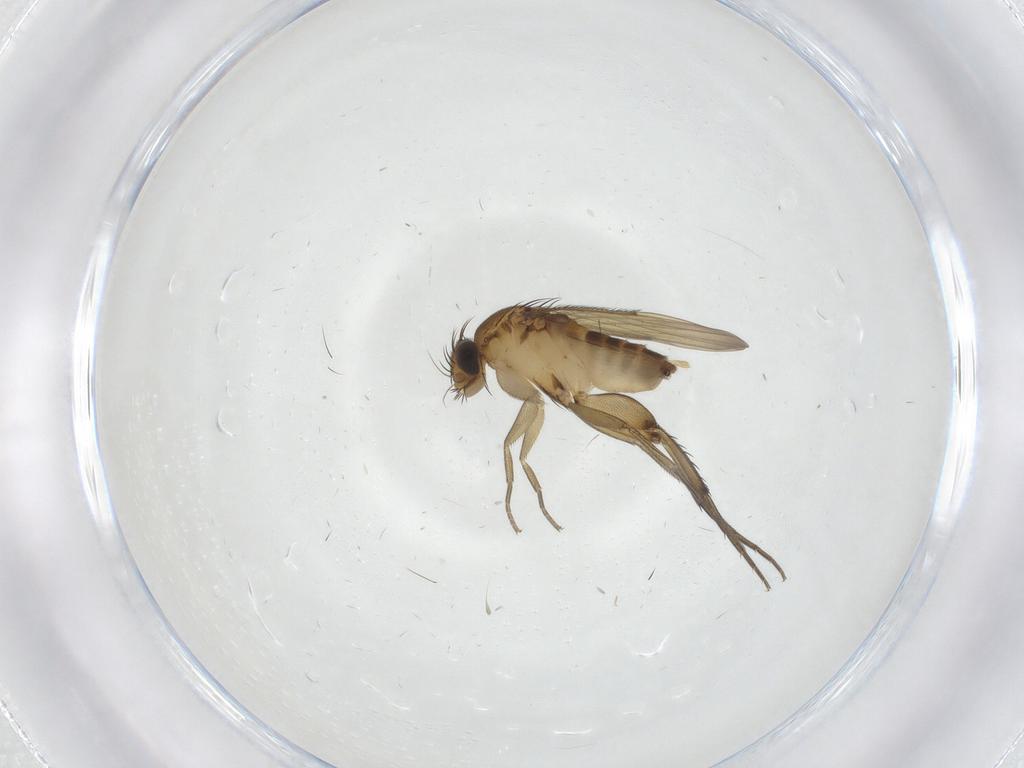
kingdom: Animalia
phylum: Arthropoda
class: Insecta
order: Diptera
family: Phoridae
